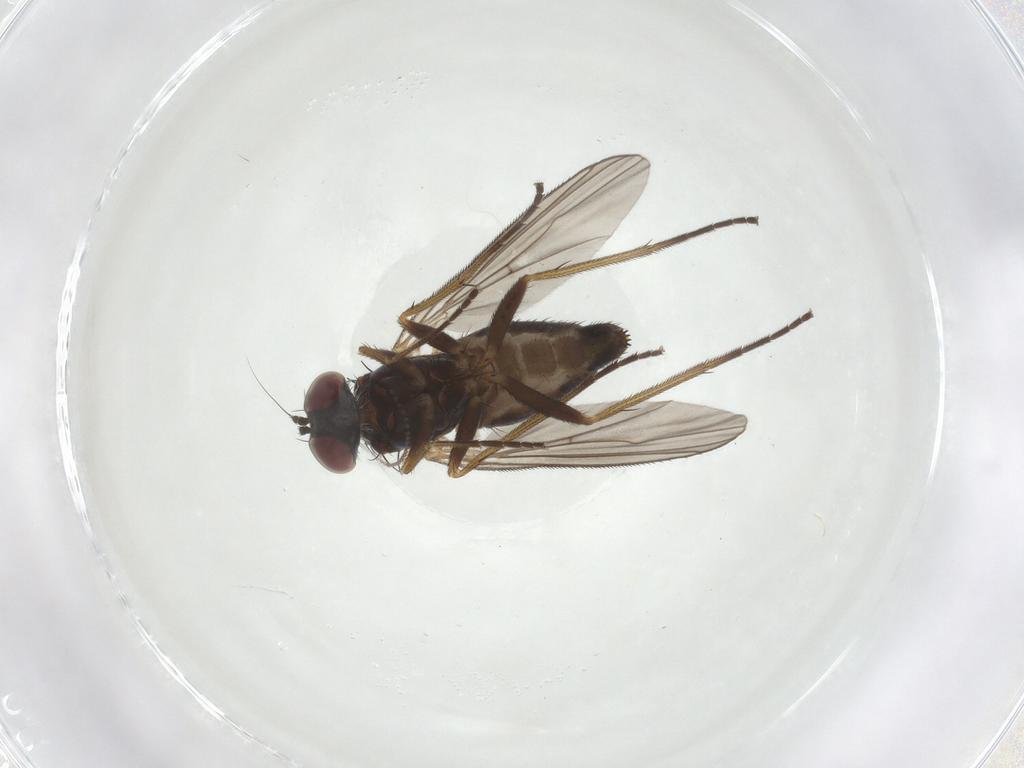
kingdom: Animalia
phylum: Arthropoda
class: Insecta
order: Diptera
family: Dolichopodidae
